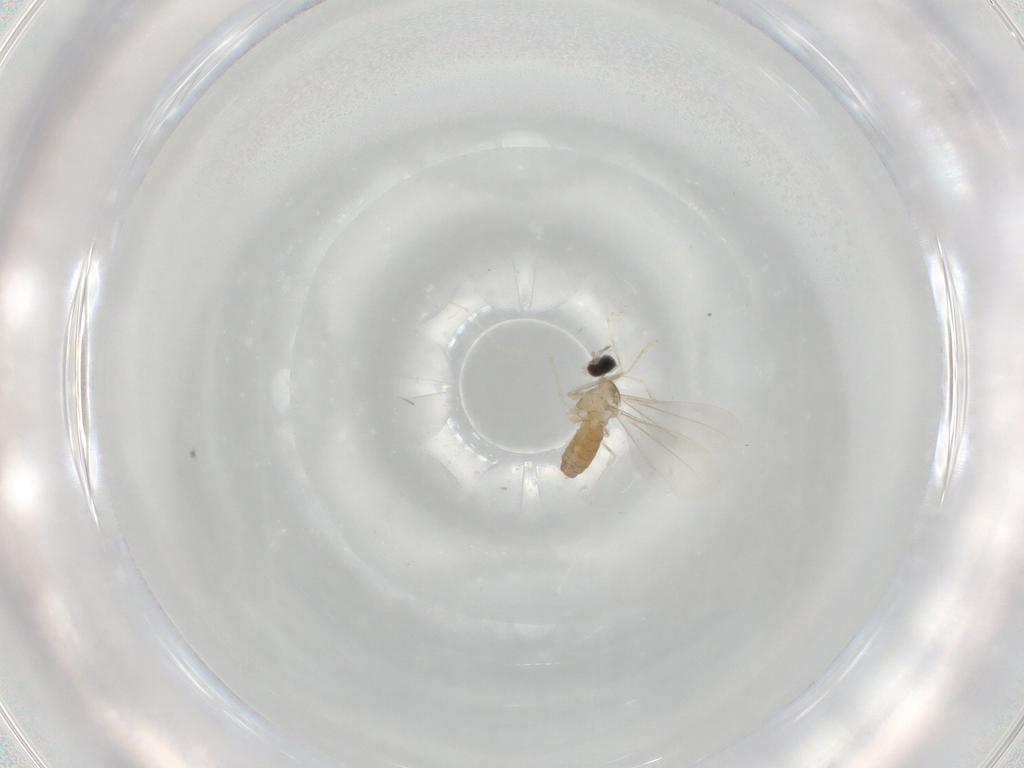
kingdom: Animalia
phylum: Arthropoda
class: Insecta
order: Diptera
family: Cecidomyiidae
